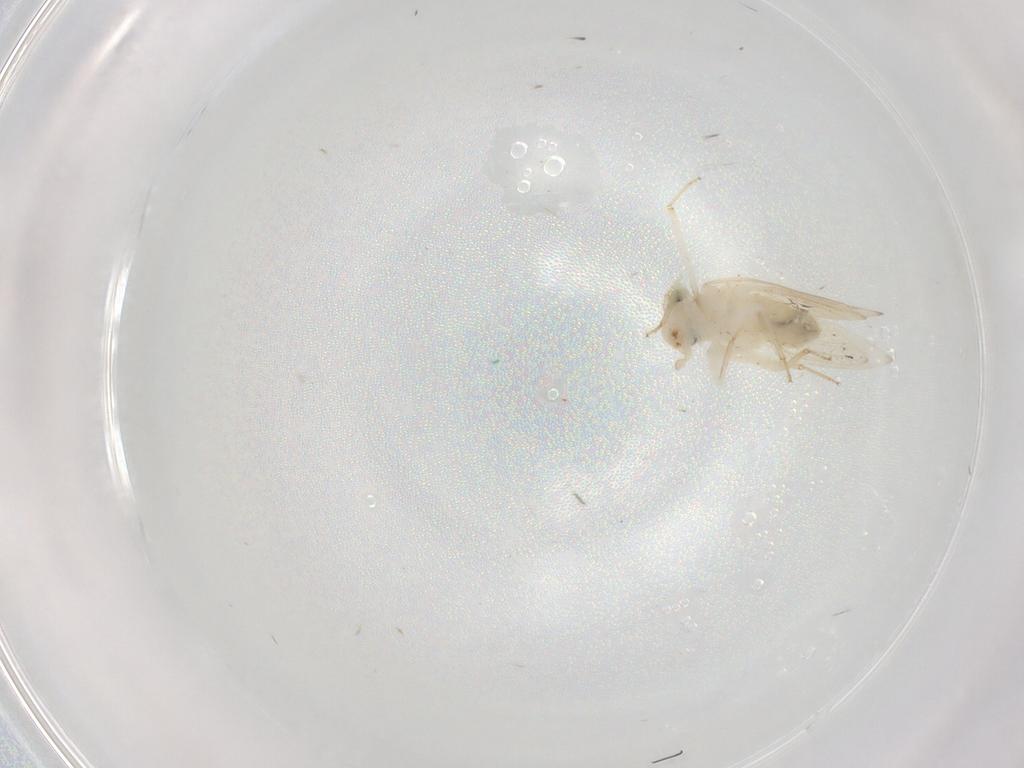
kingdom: Animalia
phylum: Arthropoda
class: Insecta
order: Psocodea
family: Lepidopsocidae
